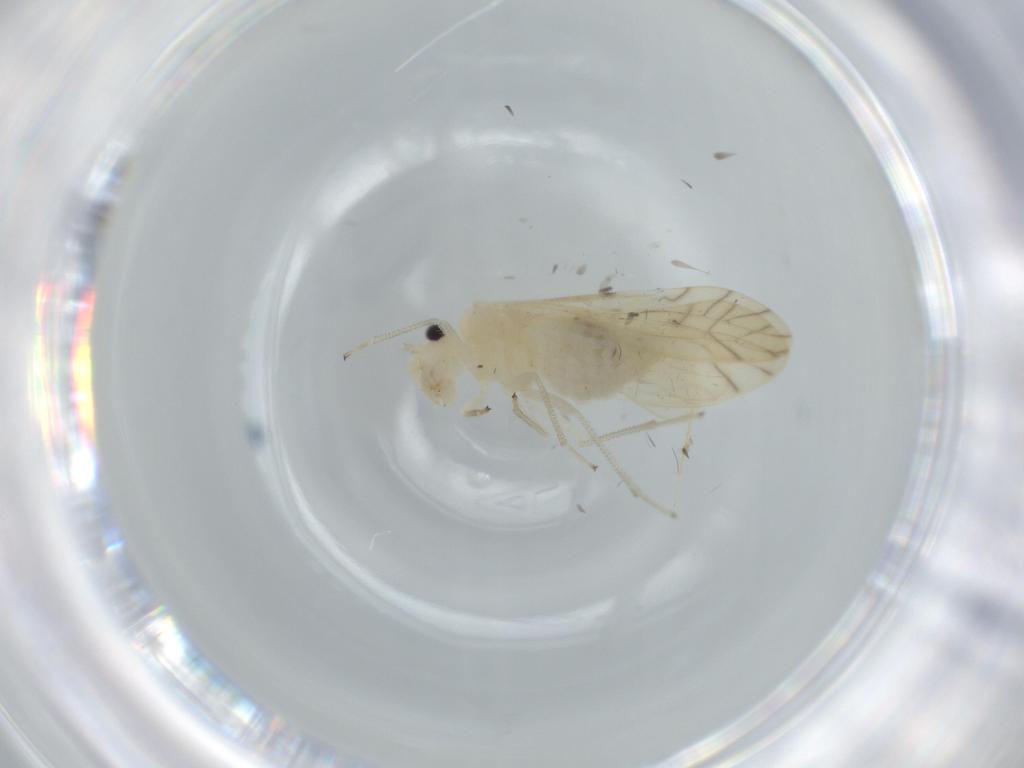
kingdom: Animalia
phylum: Arthropoda
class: Insecta
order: Psocodea
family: Caeciliusidae
